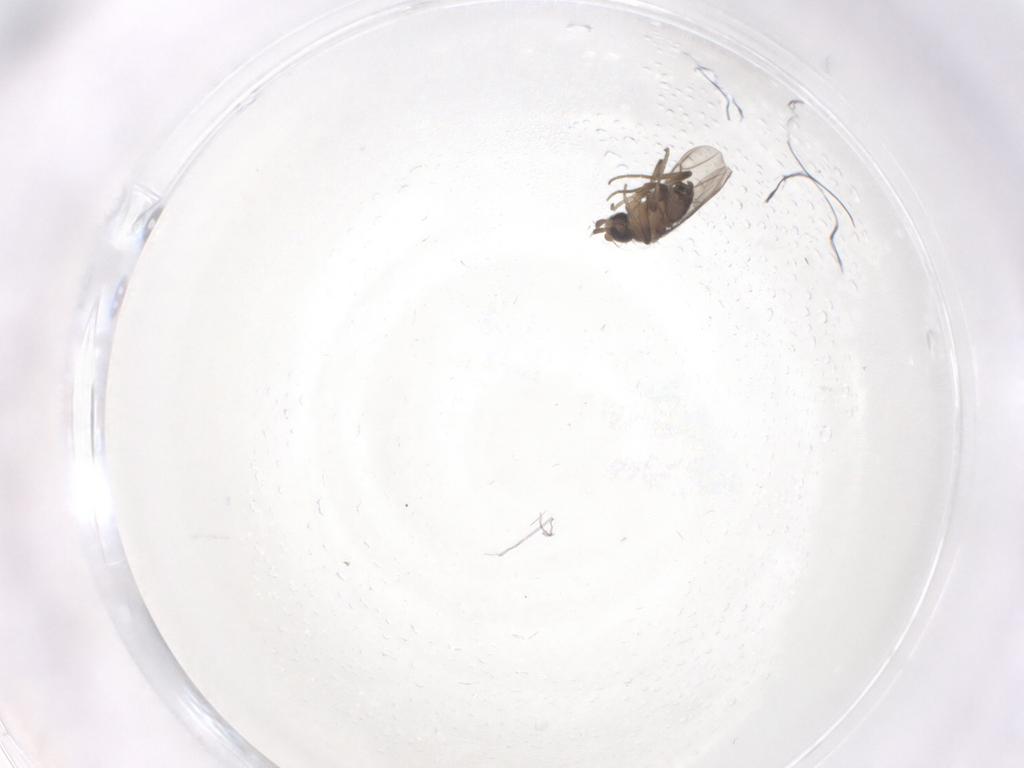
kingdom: Animalia
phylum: Arthropoda
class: Insecta
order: Diptera
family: Phoridae
